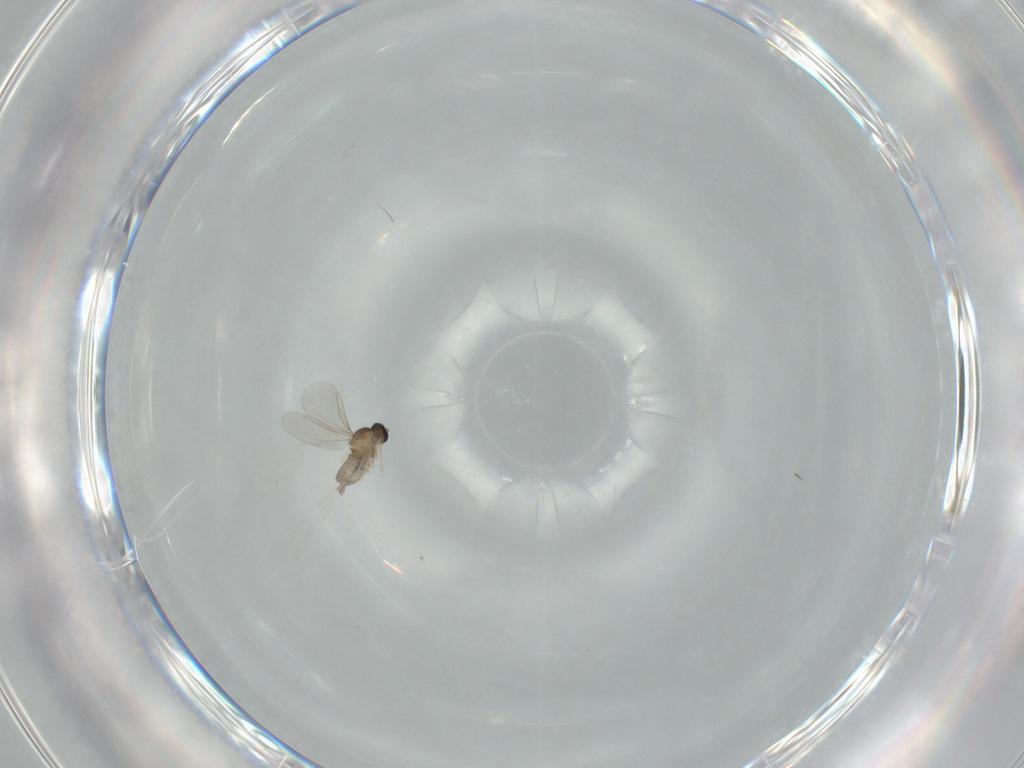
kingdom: Animalia
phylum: Arthropoda
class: Insecta
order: Diptera
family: Cecidomyiidae
